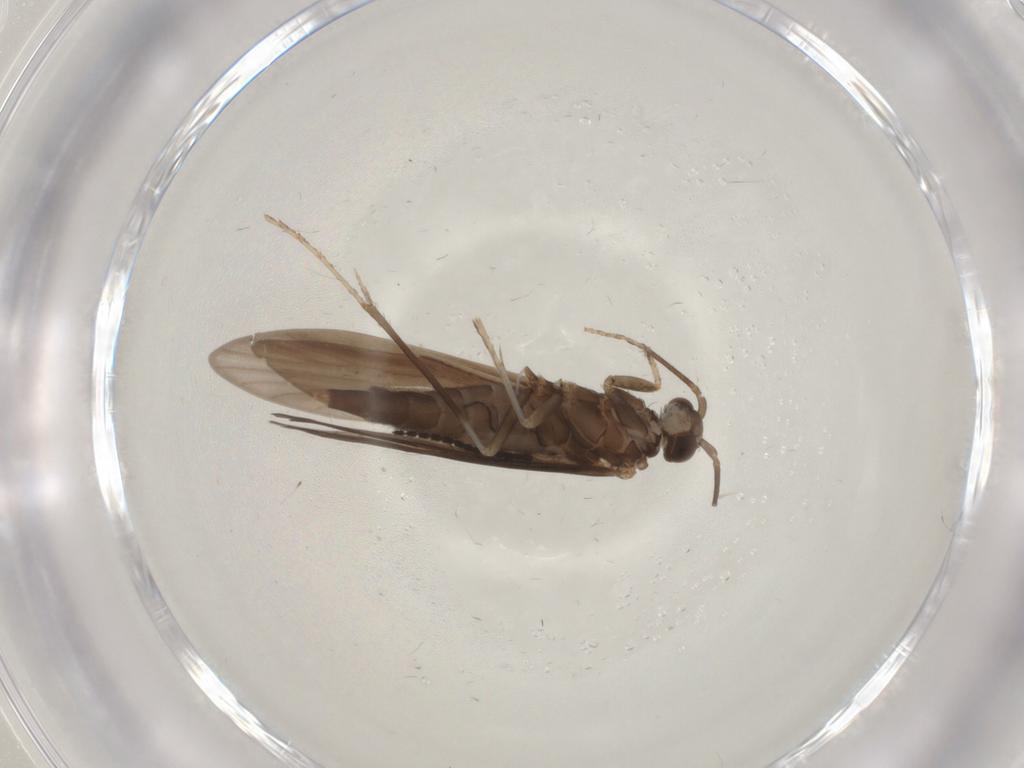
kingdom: Animalia
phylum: Arthropoda
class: Insecta
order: Trichoptera
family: Xiphocentronidae
